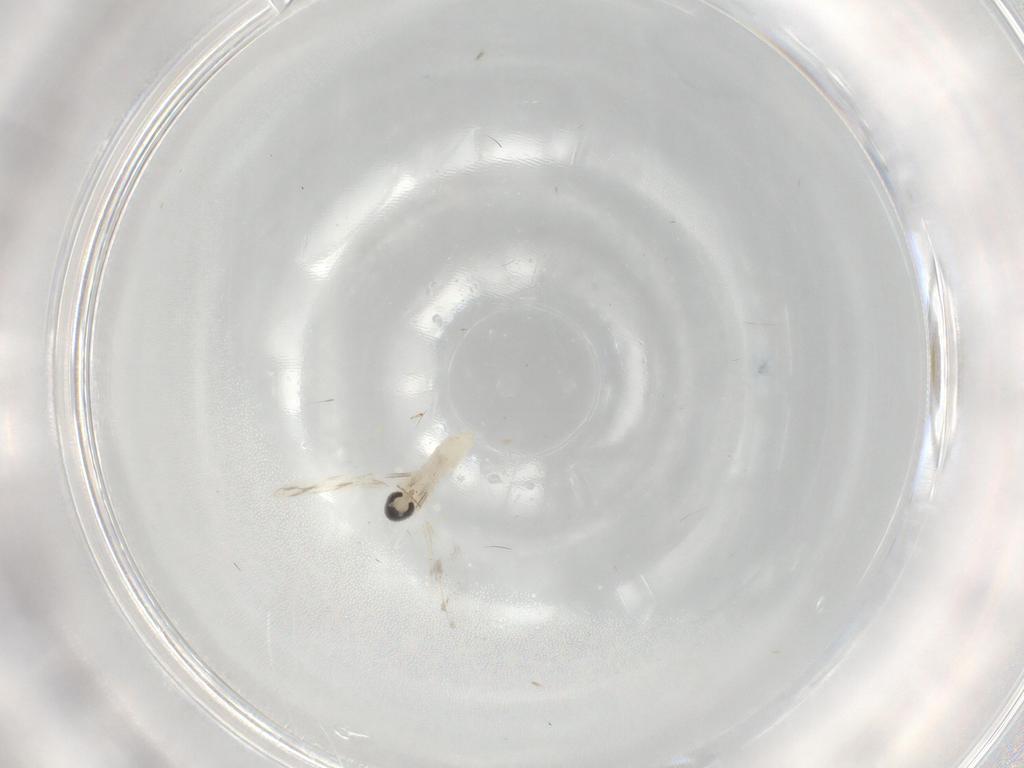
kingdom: Animalia
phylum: Arthropoda
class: Insecta
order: Diptera
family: Cecidomyiidae
